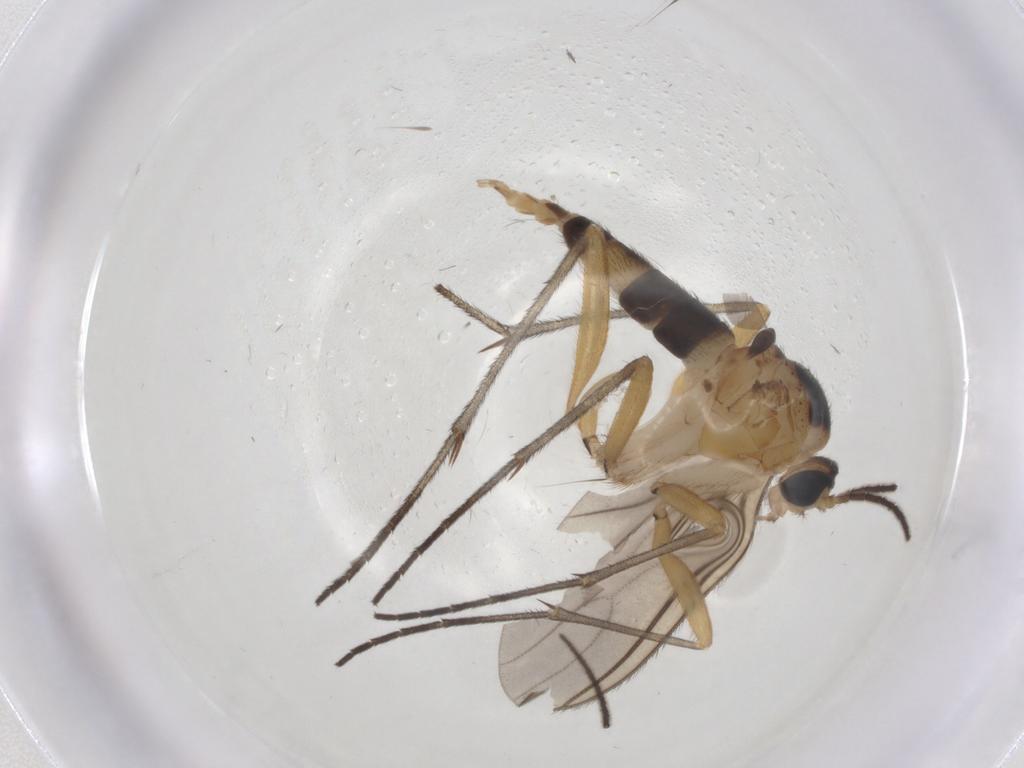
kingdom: Animalia
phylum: Arthropoda
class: Insecta
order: Diptera
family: Sciaridae
